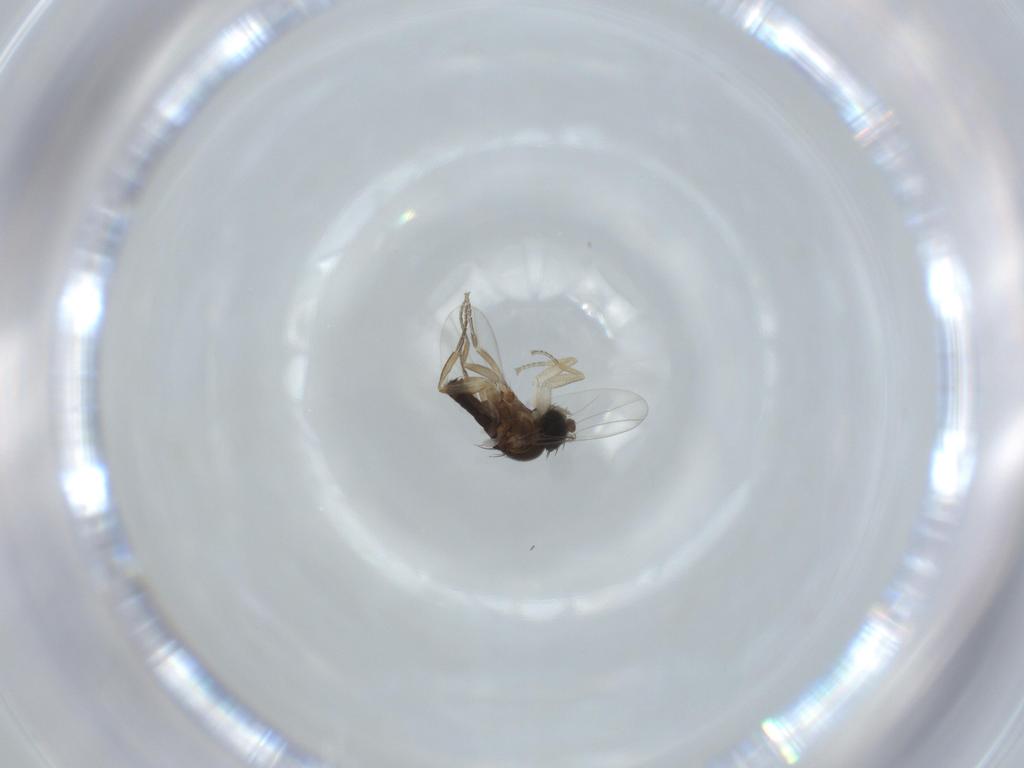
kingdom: Animalia
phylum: Arthropoda
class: Insecta
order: Diptera
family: Phoridae
